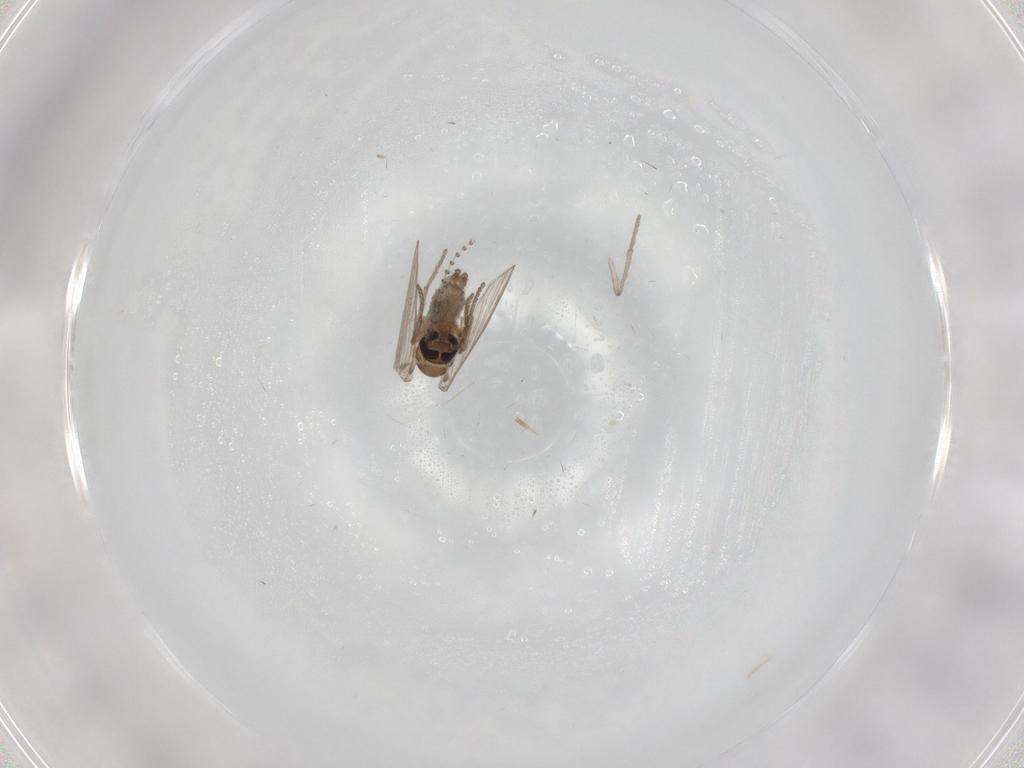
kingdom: Animalia
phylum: Arthropoda
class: Insecta
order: Diptera
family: Psychodidae
